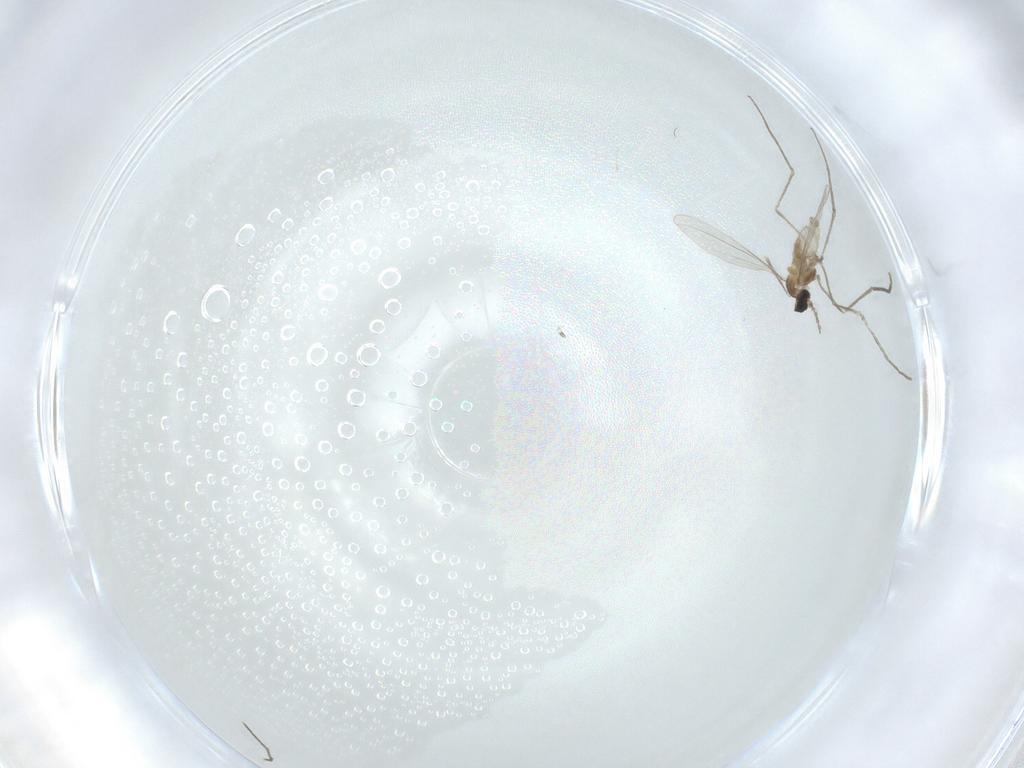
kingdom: Animalia
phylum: Arthropoda
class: Insecta
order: Diptera
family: Cecidomyiidae
